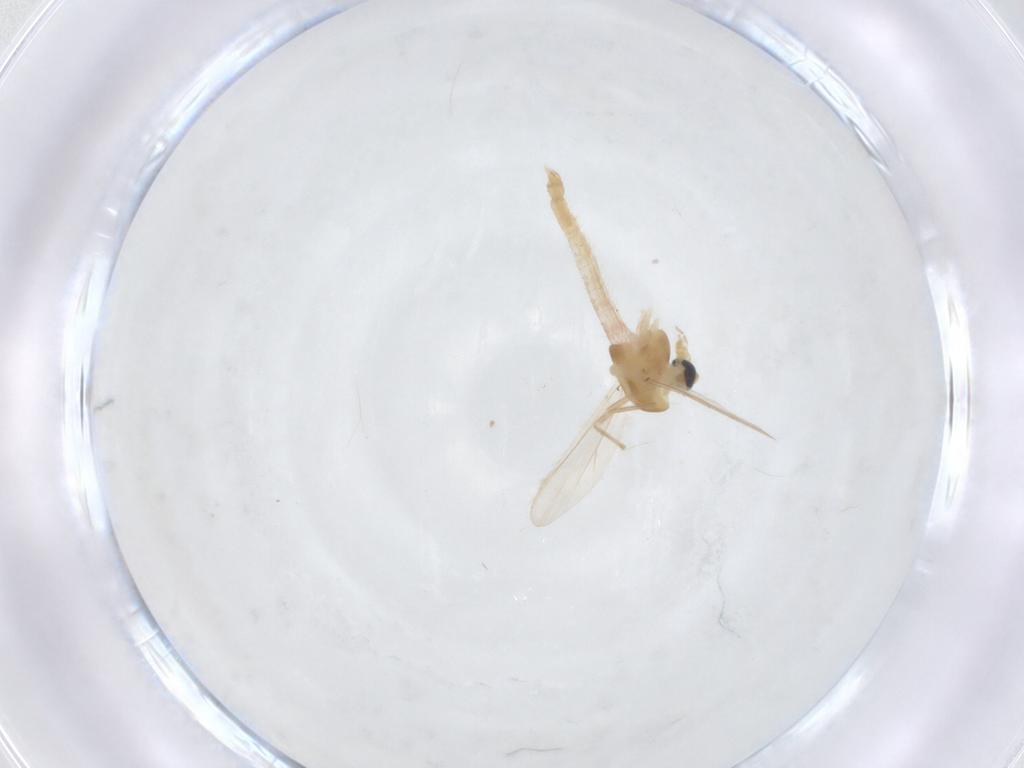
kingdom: Animalia
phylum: Arthropoda
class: Insecta
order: Diptera
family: Chironomidae
